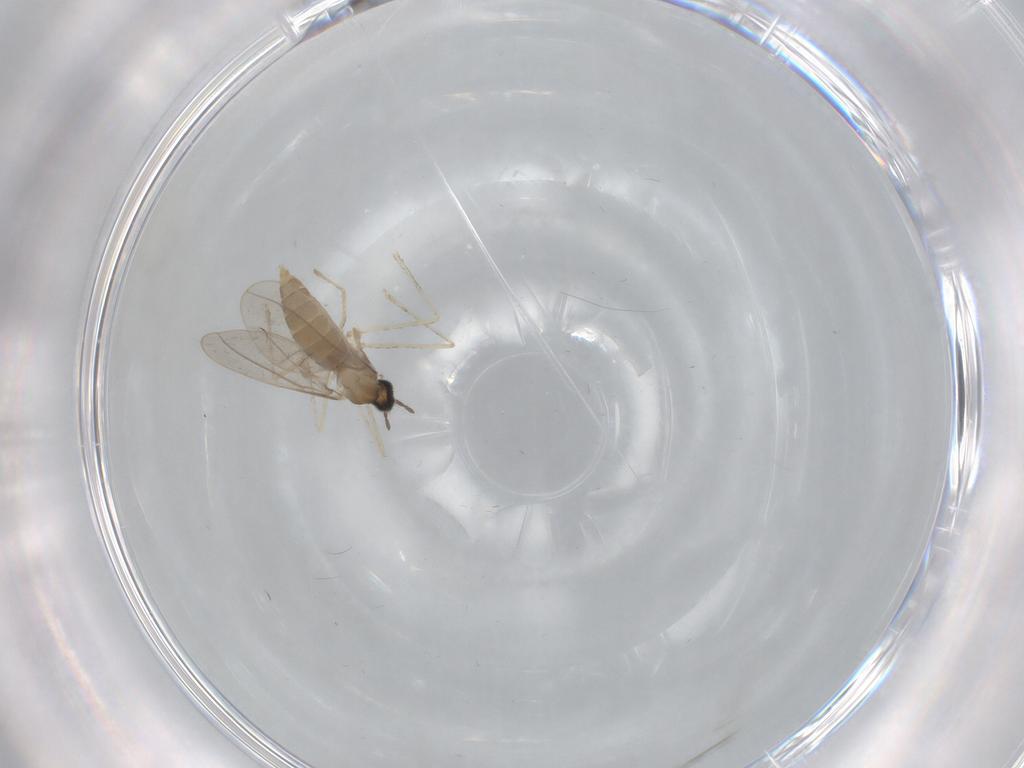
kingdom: Animalia
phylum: Arthropoda
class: Insecta
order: Diptera
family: Cecidomyiidae
